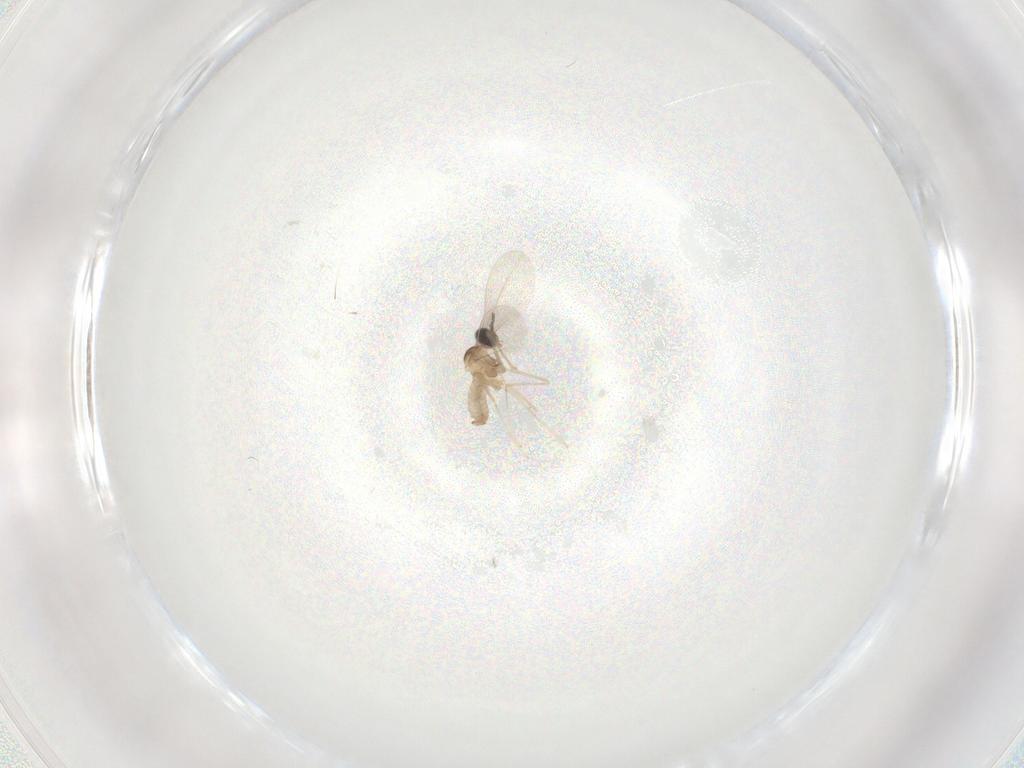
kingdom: Animalia
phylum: Arthropoda
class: Insecta
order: Diptera
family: Cecidomyiidae
